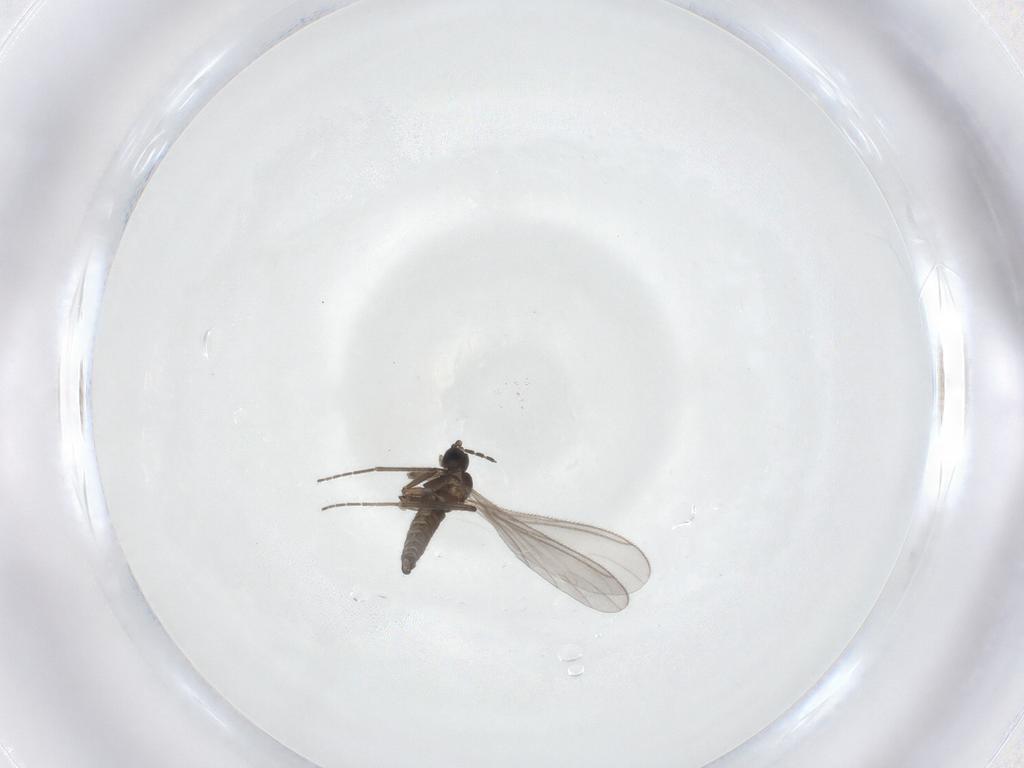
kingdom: Animalia
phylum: Arthropoda
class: Insecta
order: Diptera
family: Sciaridae
